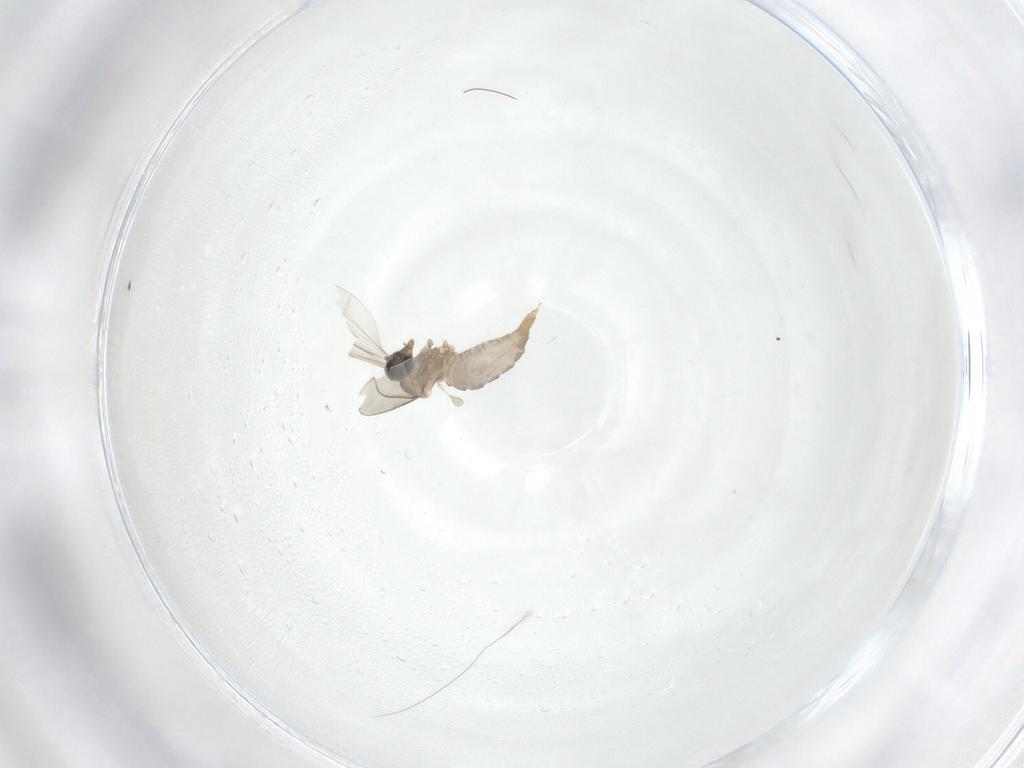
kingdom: Animalia
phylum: Arthropoda
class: Insecta
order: Diptera
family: Cecidomyiidae
